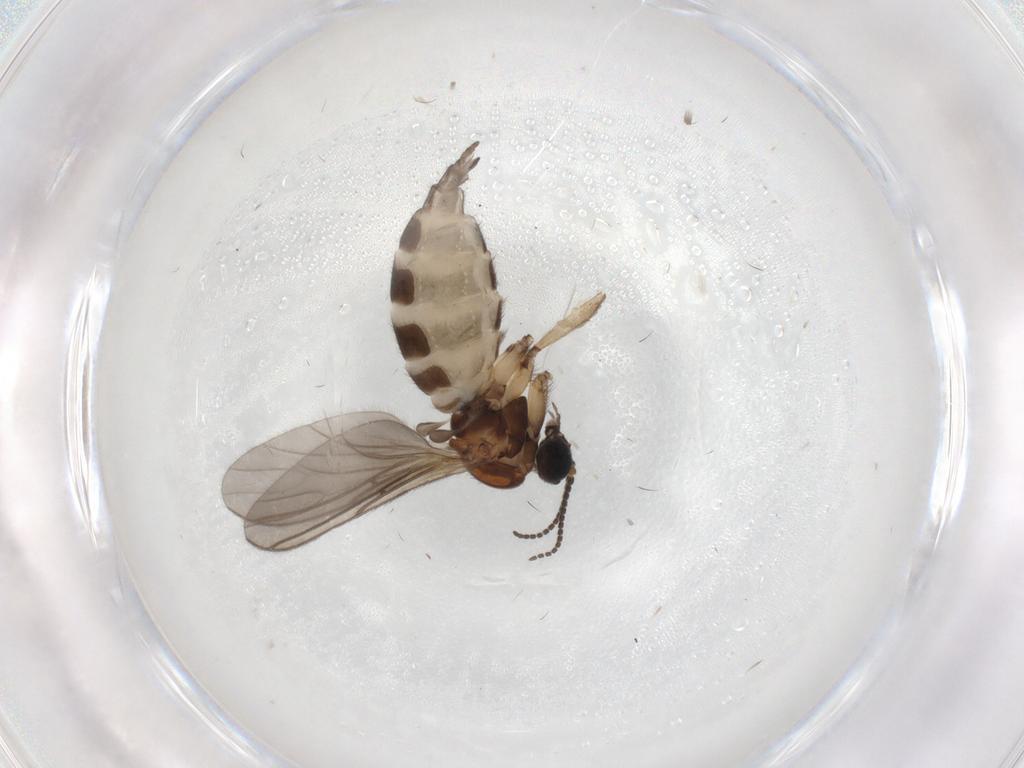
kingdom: Animalia
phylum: Arthropoda
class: Insecta
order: Diptera
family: Sciaridae
